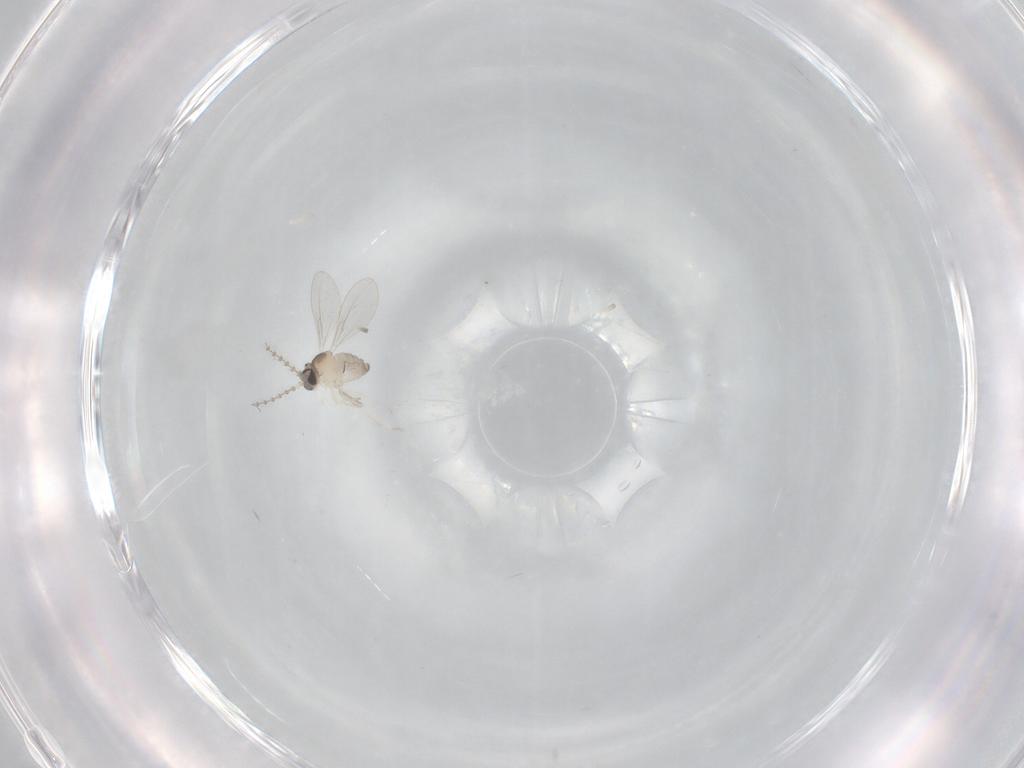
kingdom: Animalia
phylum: Arthropoda
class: Insecta
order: Diptera
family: Cecidomyiidae
